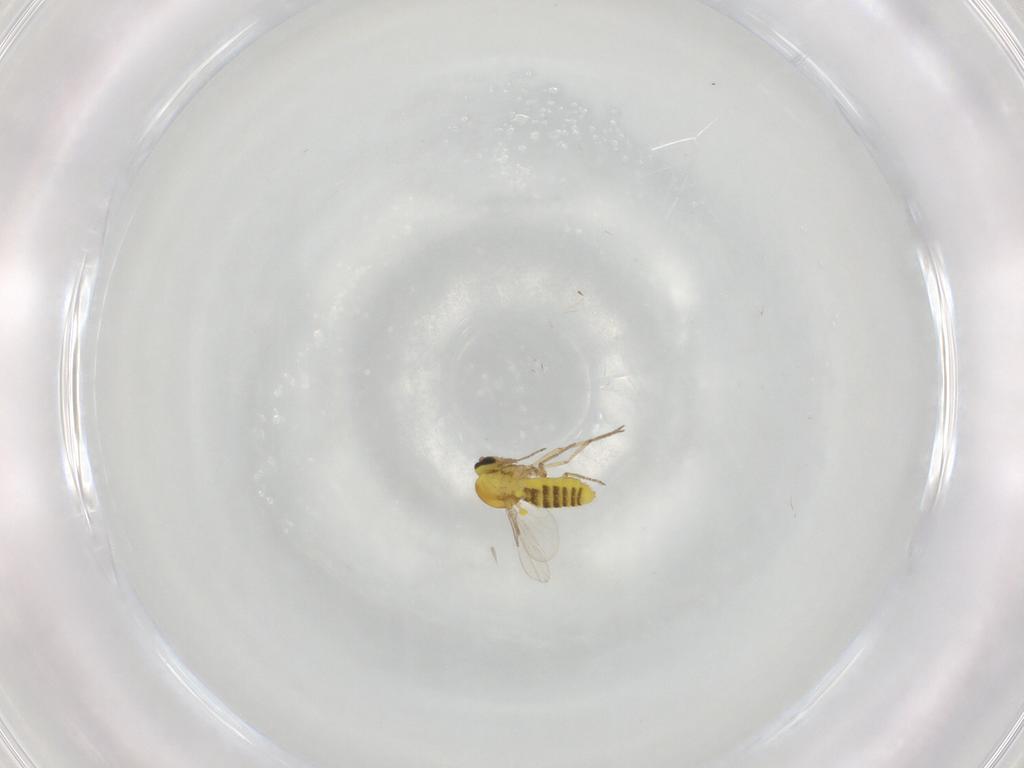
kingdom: Animalia
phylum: Arthropoda
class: Insecta
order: Diptera
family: Ceratopogonidae
